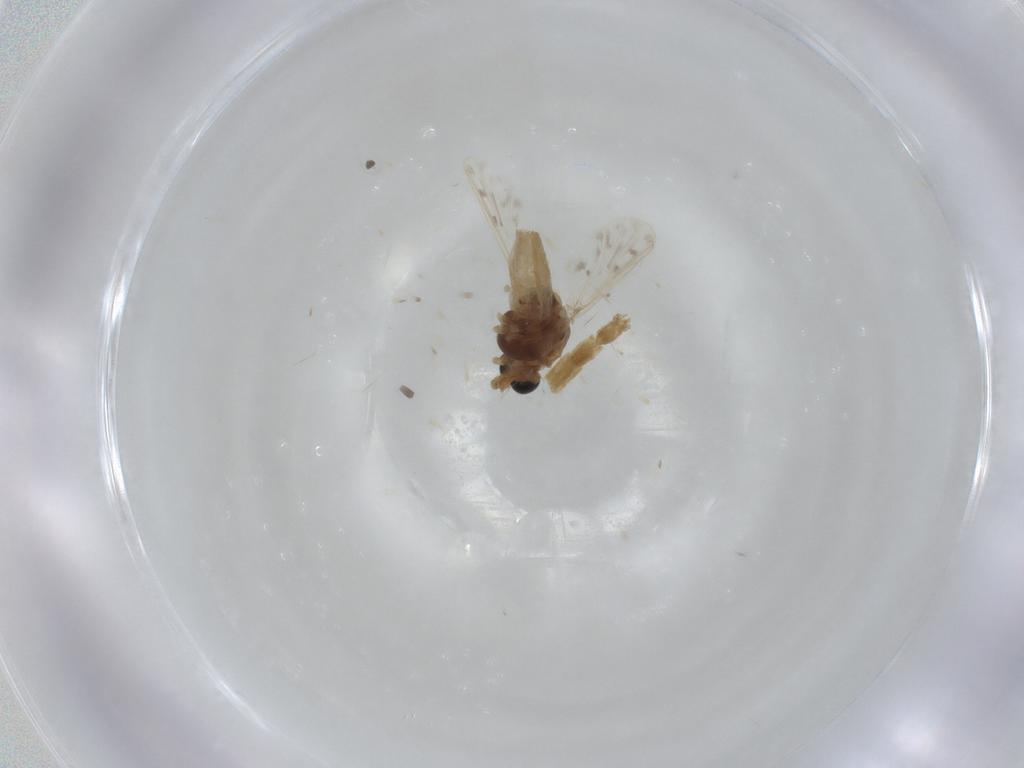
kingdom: Animalia
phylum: Arthropoda
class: Insecta
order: Diptera
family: Chironomidae
